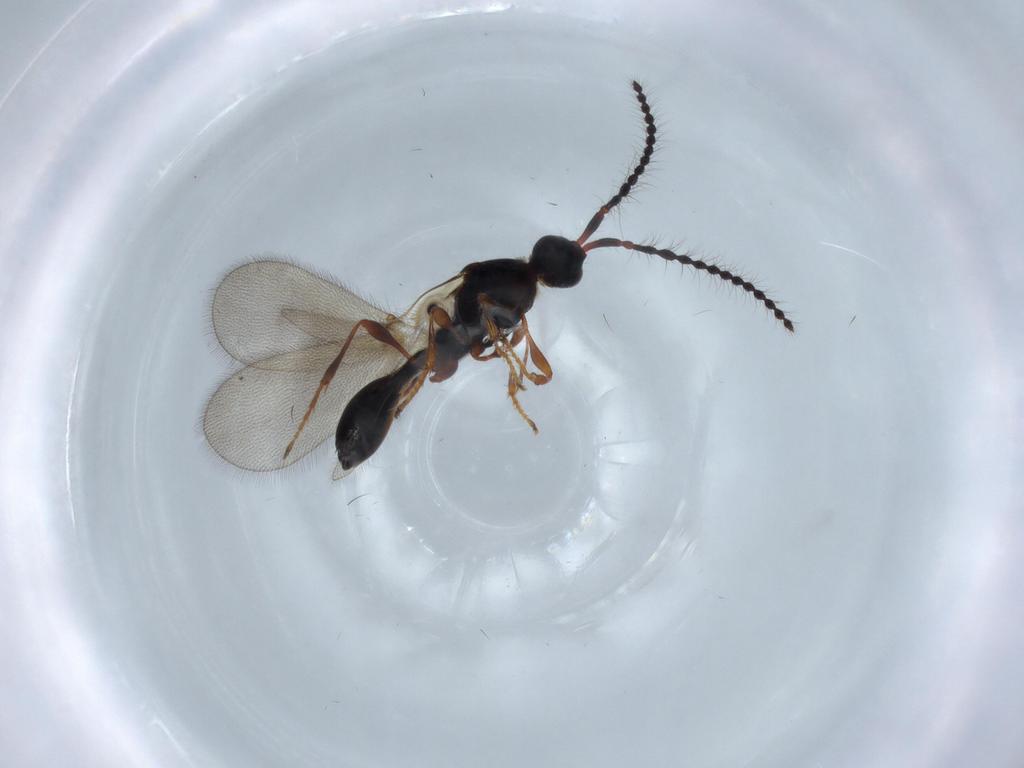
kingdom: Animalia
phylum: Arthropoda
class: Insecta
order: Hymenoptera
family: Diapriidae
